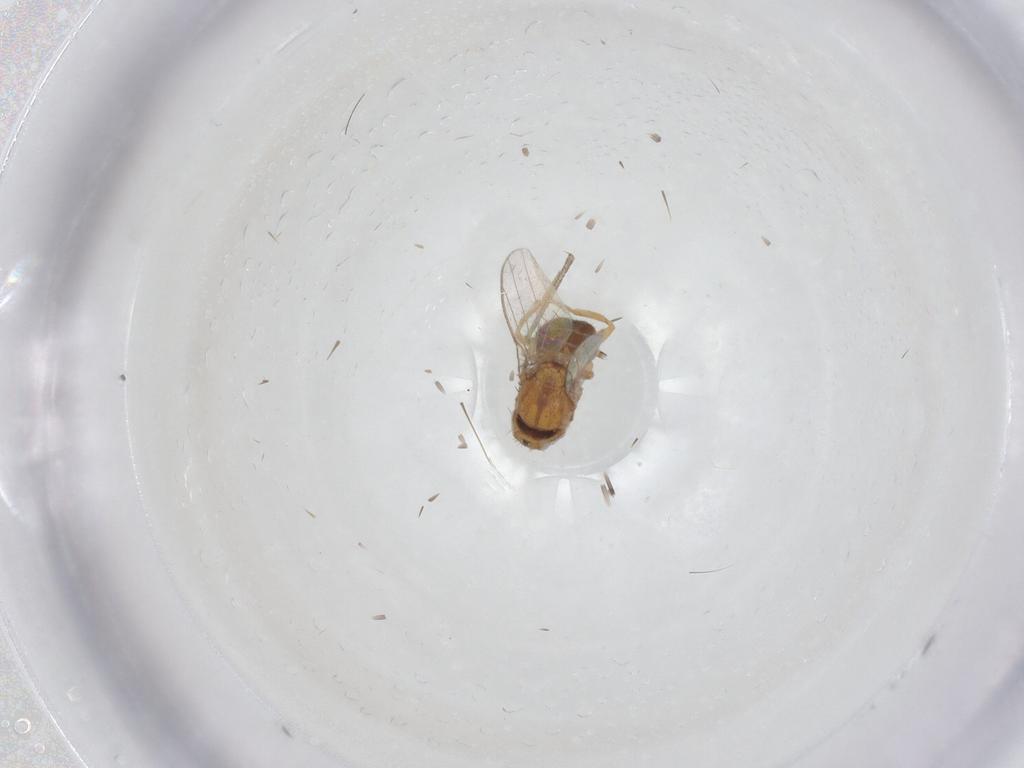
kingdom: Animalia
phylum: Arthropoda
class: Insecta
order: Diptera
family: Chloropidae
